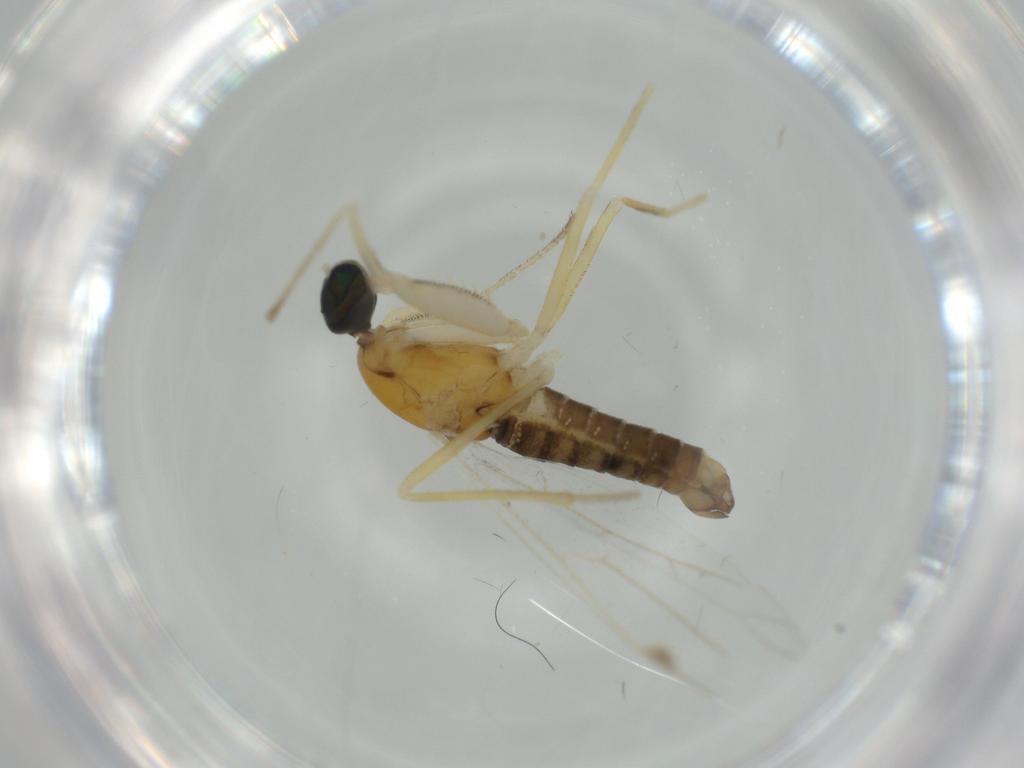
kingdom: Animalia
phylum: Arthropoda
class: Insecta
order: Diptera
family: Empididae
